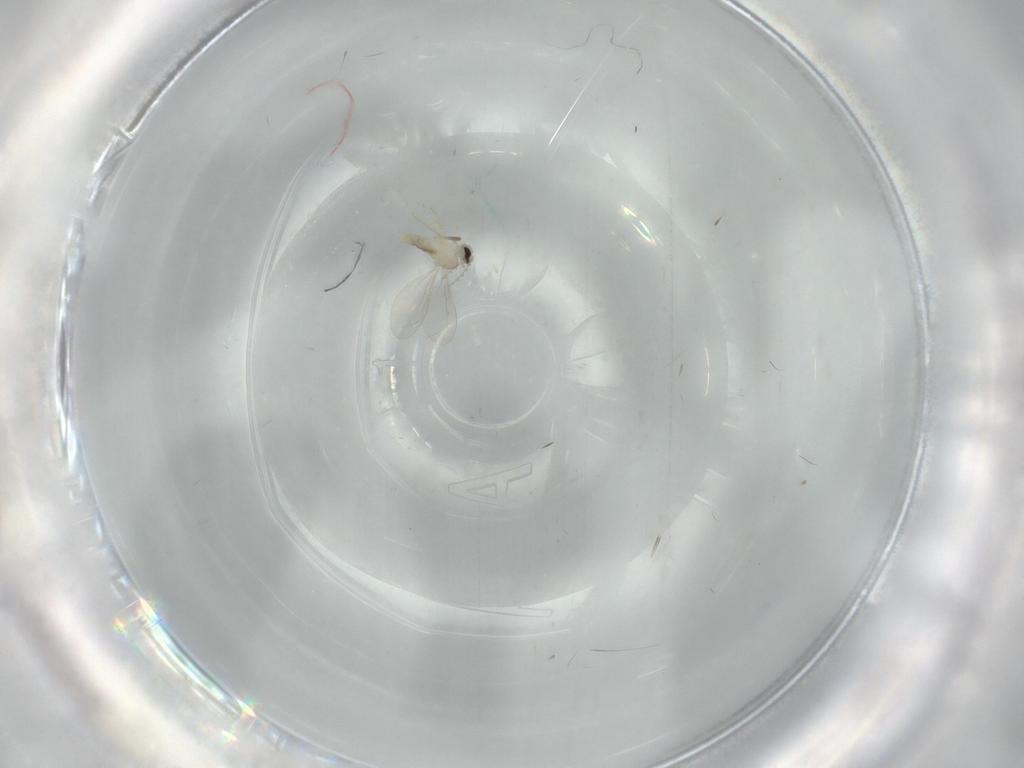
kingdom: Animalia
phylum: Arthropoda
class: Insecta
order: Diptera
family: Cecidomyiidae
